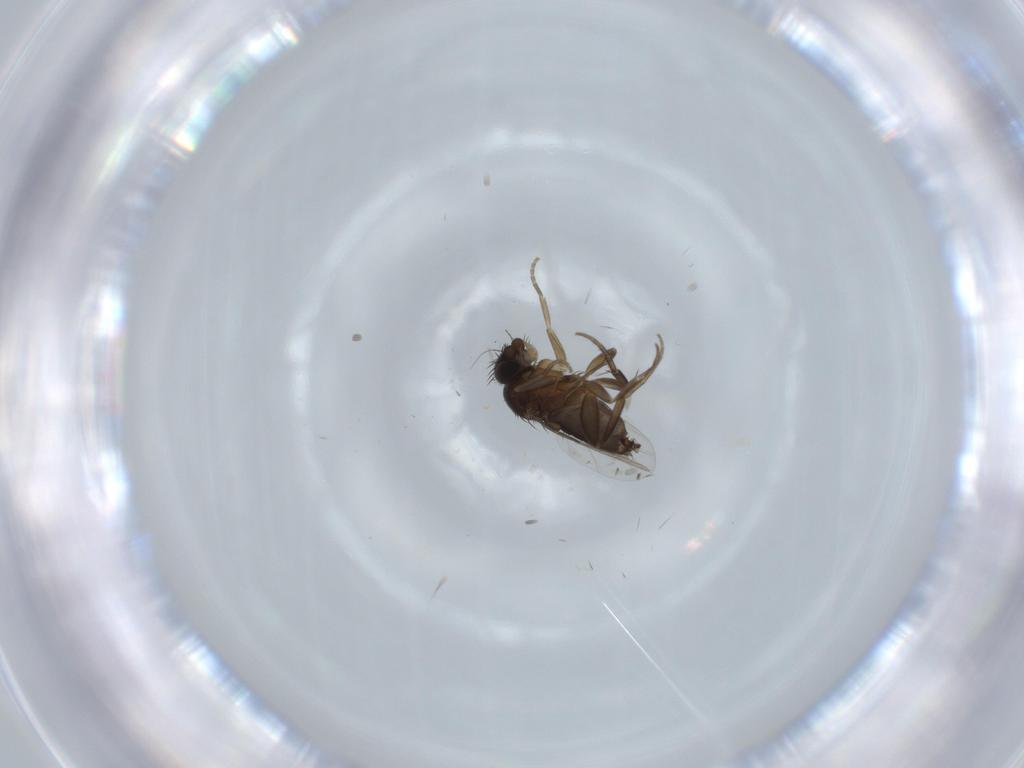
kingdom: Animalia
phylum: Arthropoda
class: Insecta
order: Diptera
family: Phoridae
